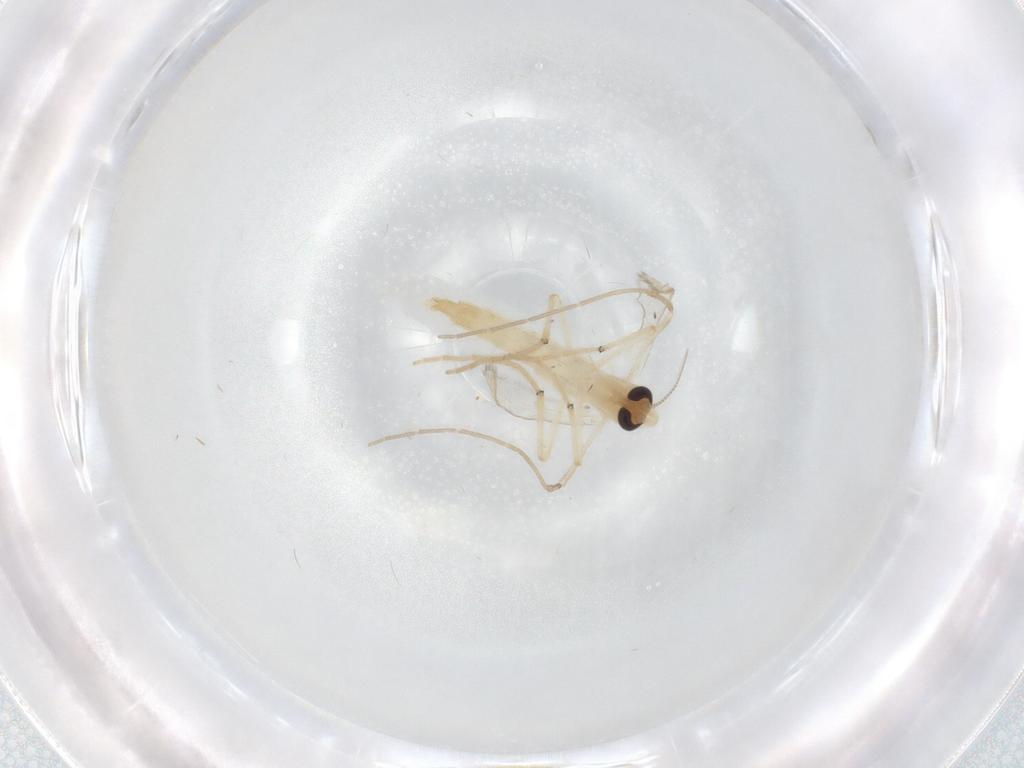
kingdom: Animalia
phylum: Arthropoda
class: Insecta
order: Diptera
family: Chironomidae
